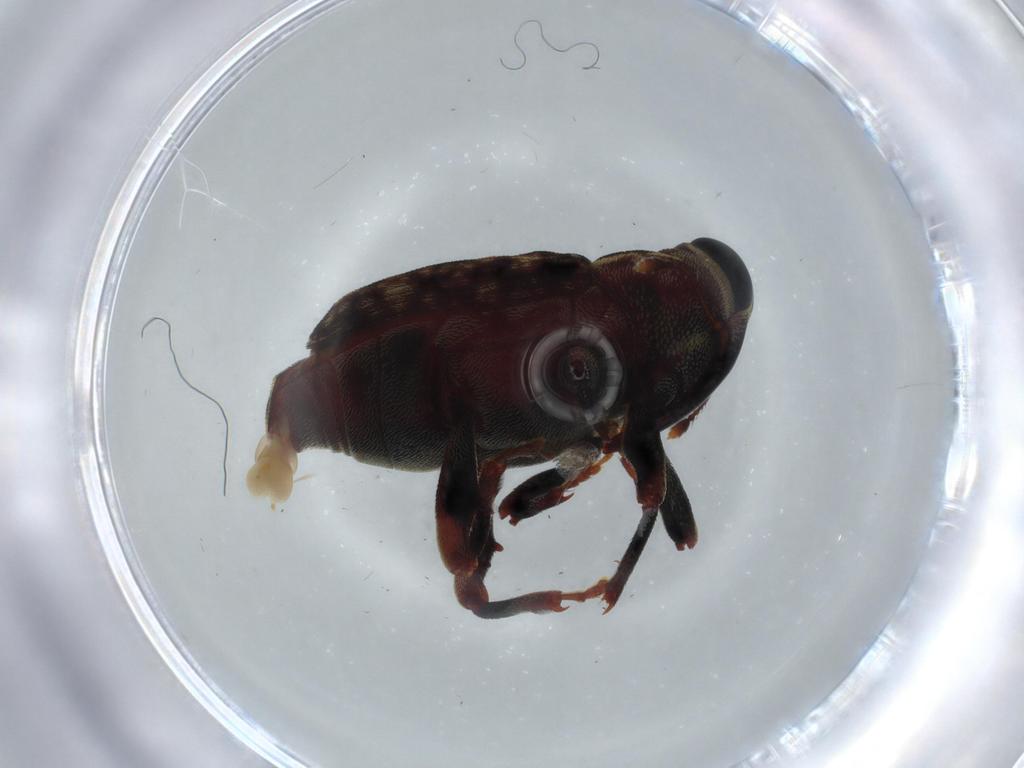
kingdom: Animalia
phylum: Arthropoda
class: Insecta
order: Coleoptera
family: Curculionidae
